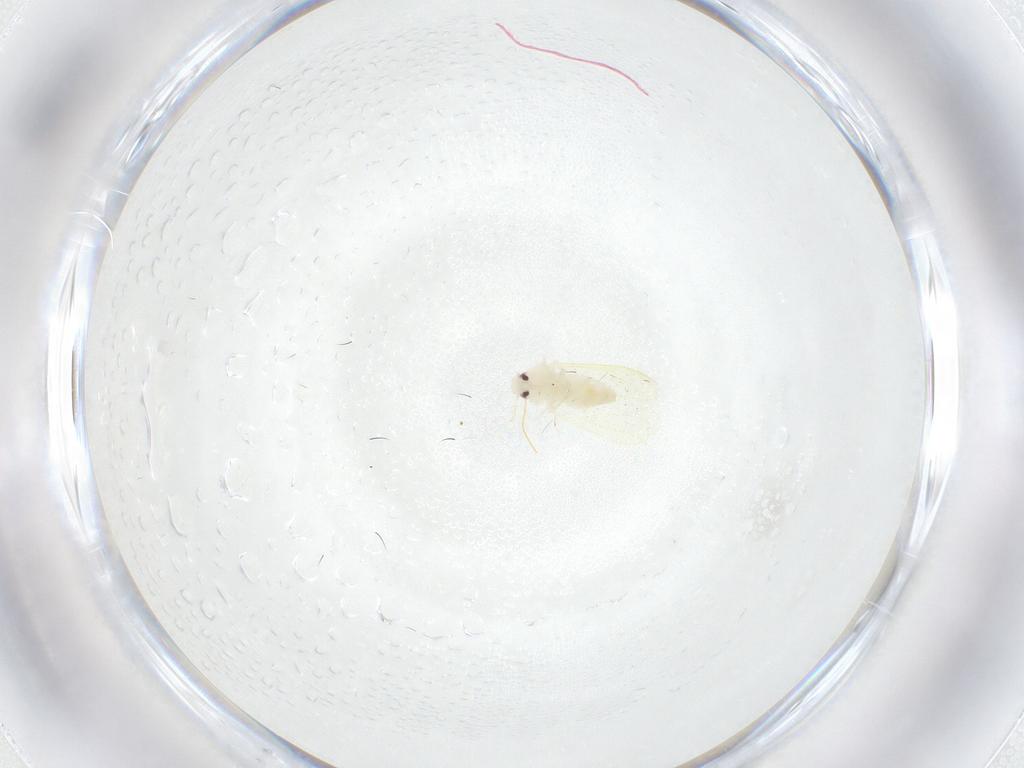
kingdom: Animalia
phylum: Arthropoda
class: Insecta
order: Hemiptera
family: Aleyrodidae
